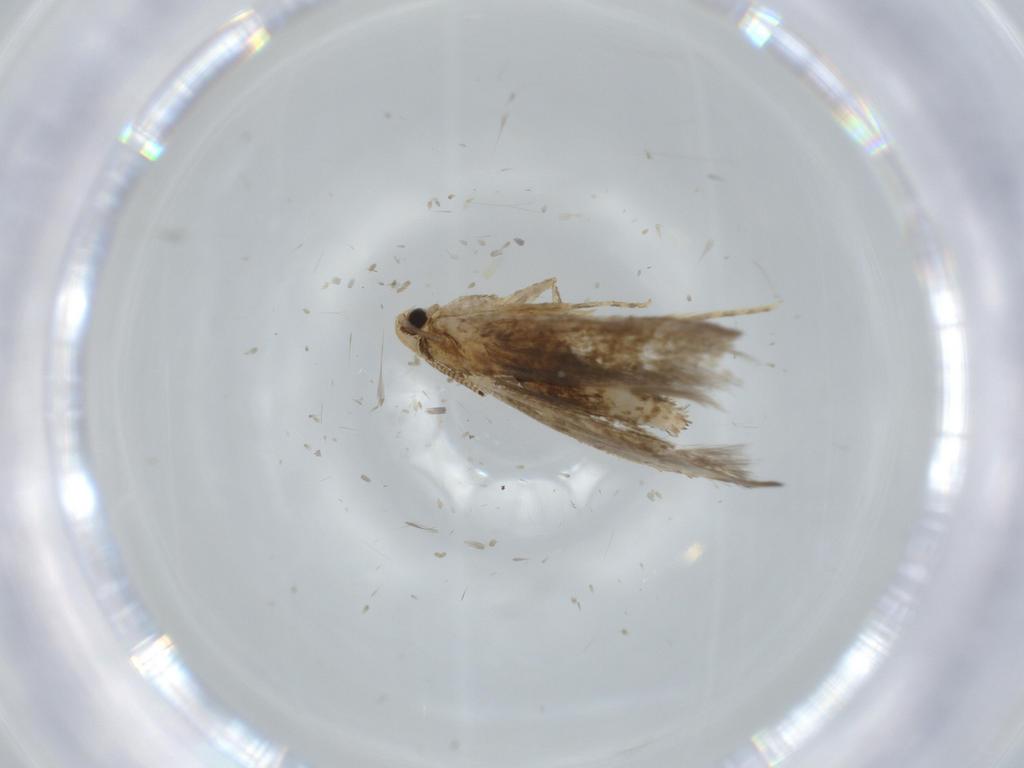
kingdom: Animalia
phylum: Arthropoda
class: Insecta
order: Lepidoptera
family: Tineidae
